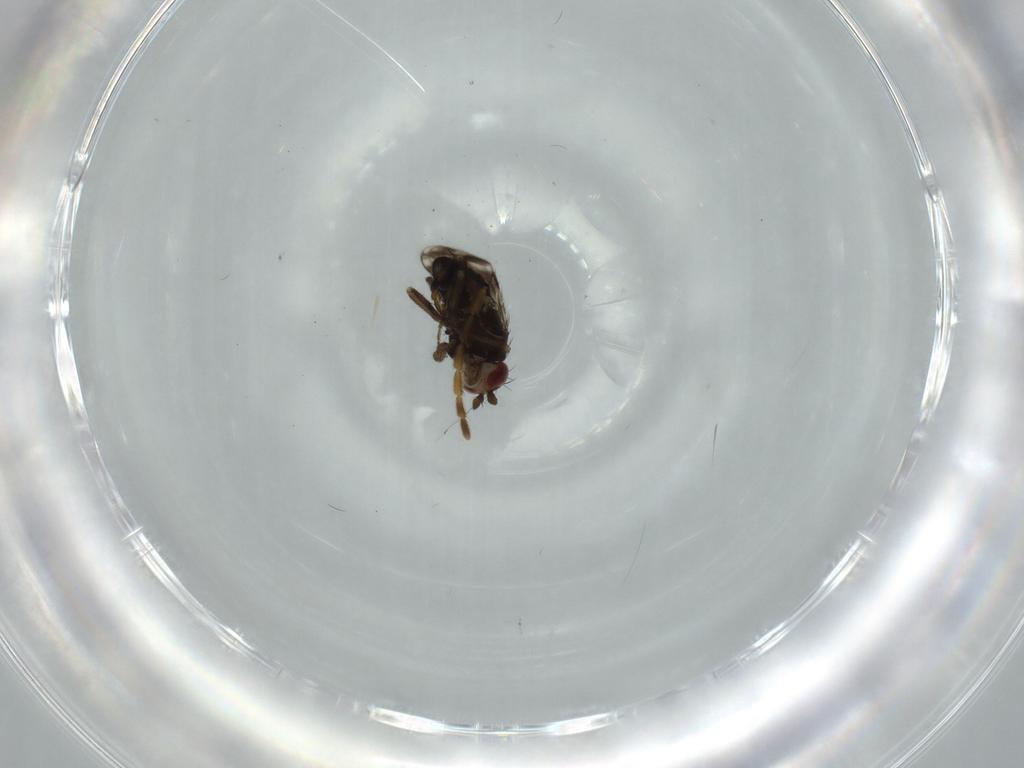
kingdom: Animalia
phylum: Arthropoda
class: Insecta
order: Diptera
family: Sphaeroceridae
